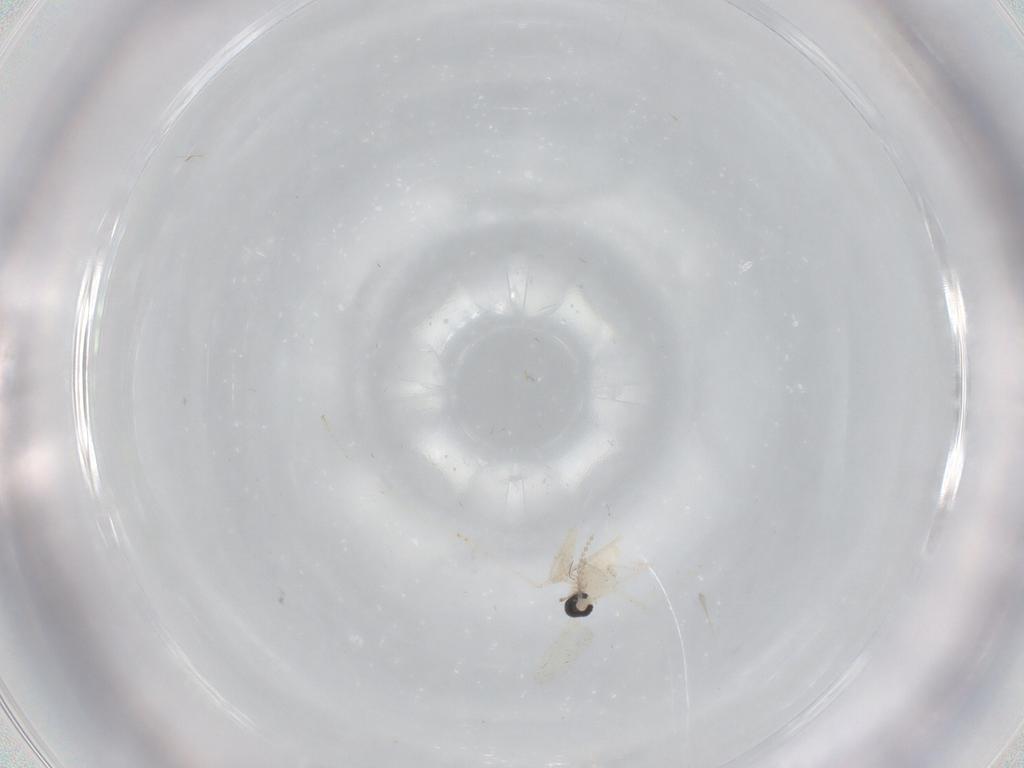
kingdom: Animalia
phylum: Arthropoda
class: Insecta
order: Diptera
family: Cecidomyiidae
